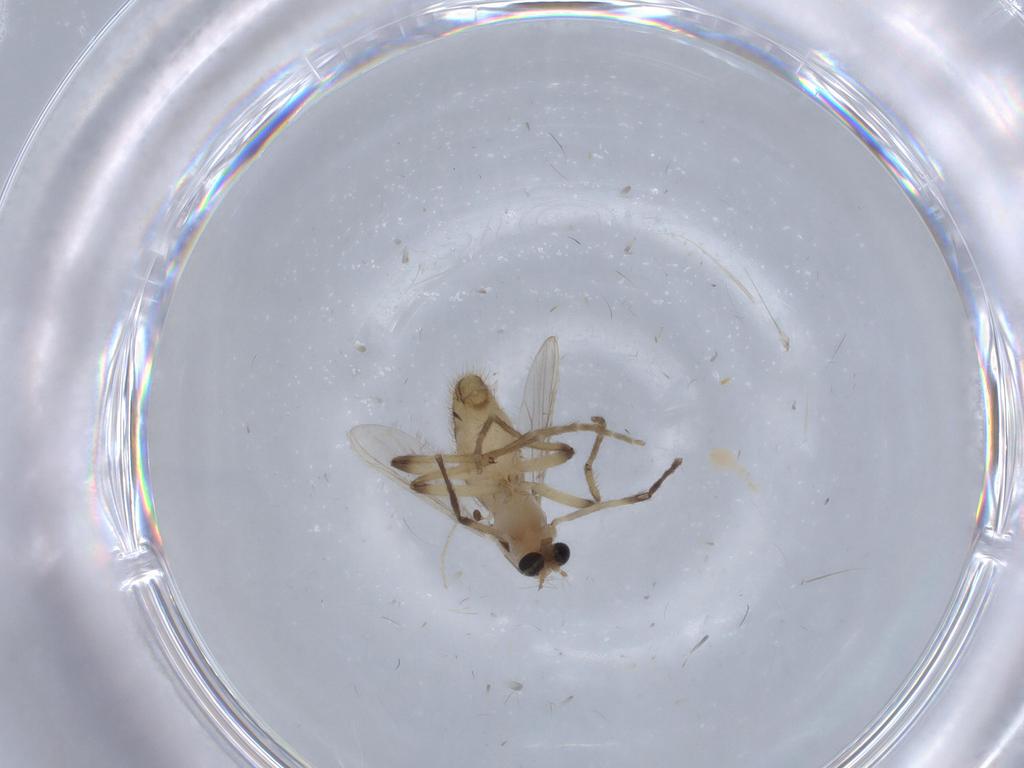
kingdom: Animalia
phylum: Arthropoda
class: Insecta
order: Diptera
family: Chironomidae
